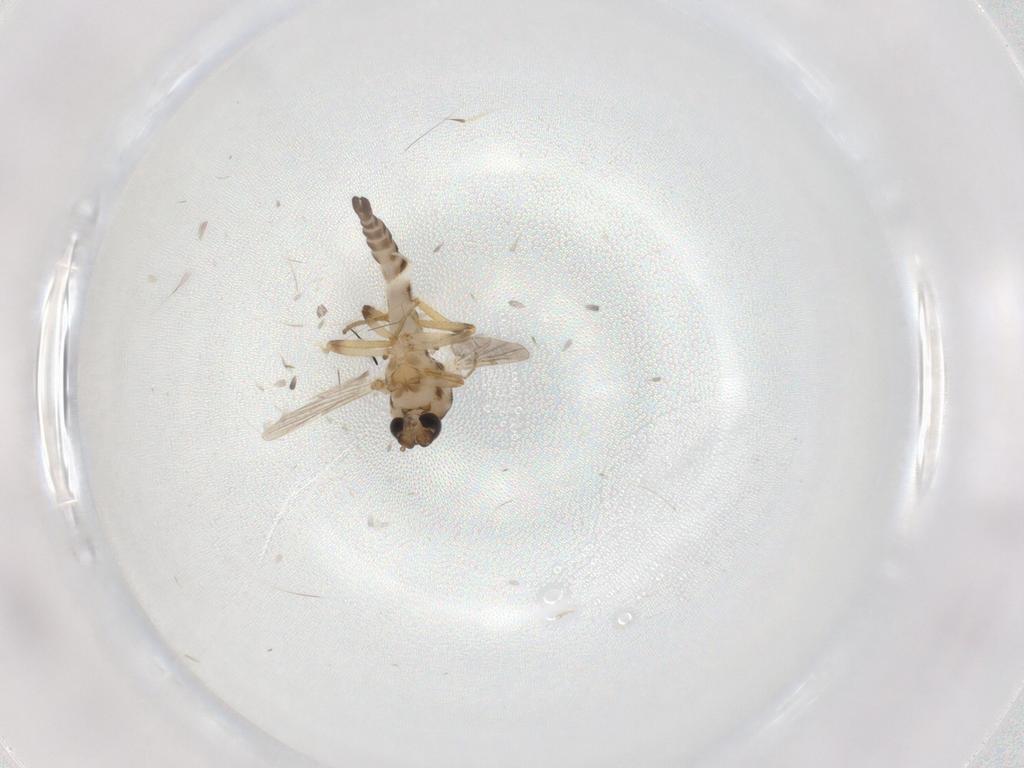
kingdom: Animalia
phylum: Arthropoda
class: Insecta
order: Diptera
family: Ceratopogonidae
